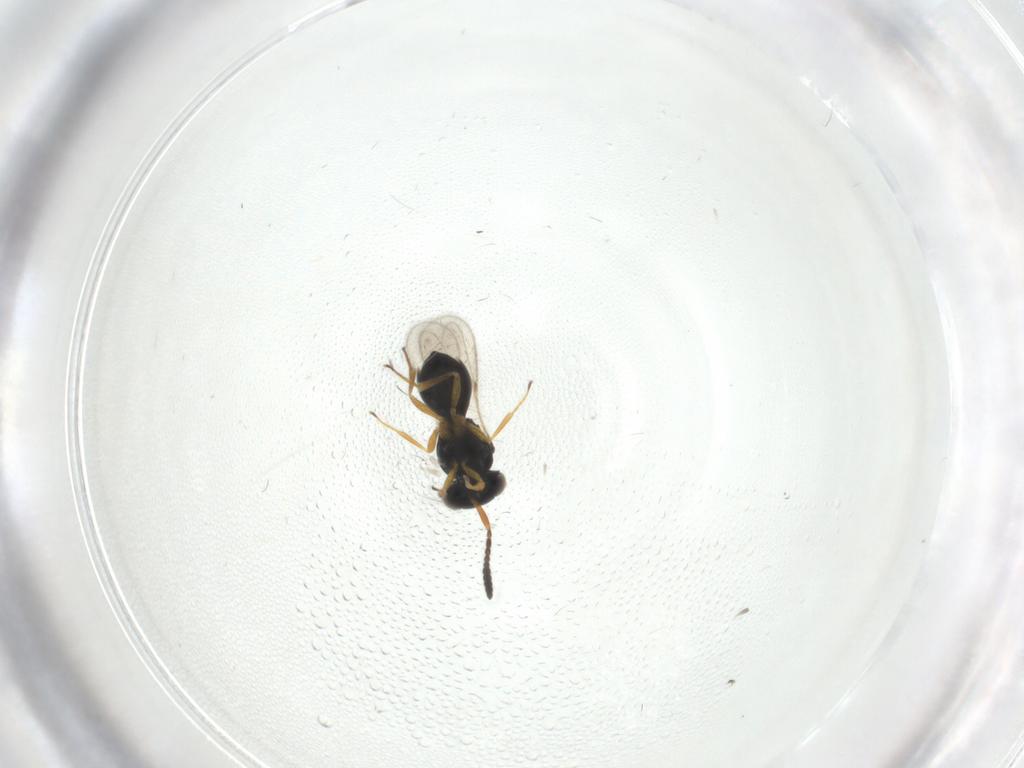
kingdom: Animalia
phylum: Arthropoda
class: Insecta
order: Hymenoptera
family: Scelionidae
